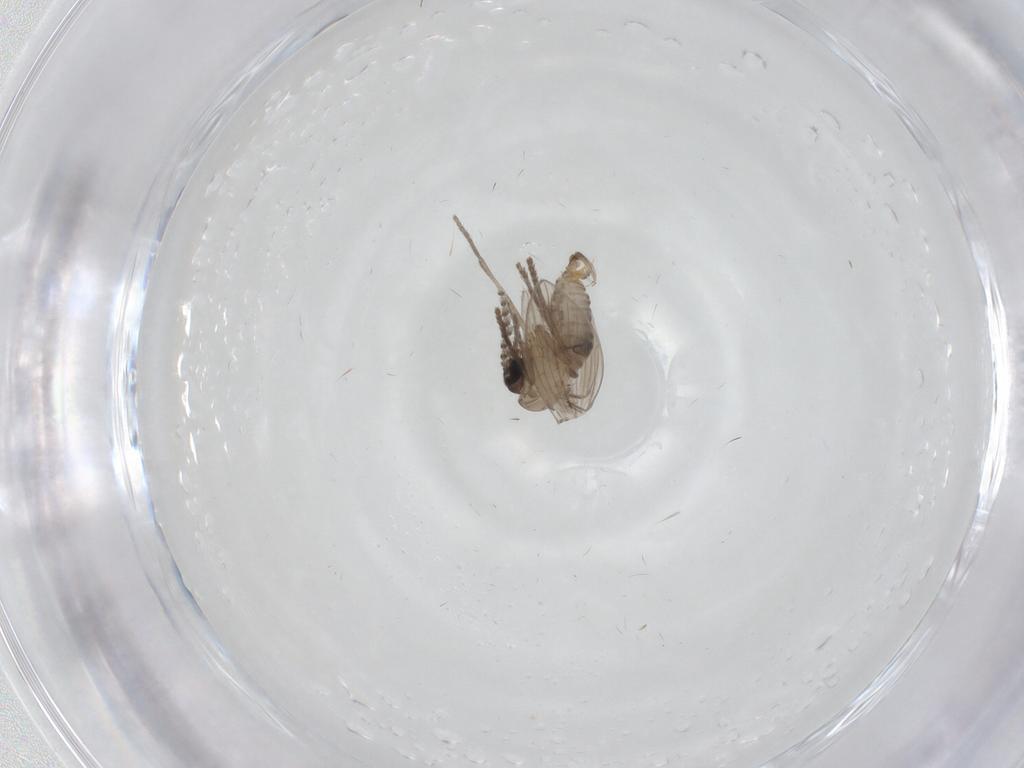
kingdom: Animalia
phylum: Arthropoda
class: Insecta
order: Diptera
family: Psychodidae
